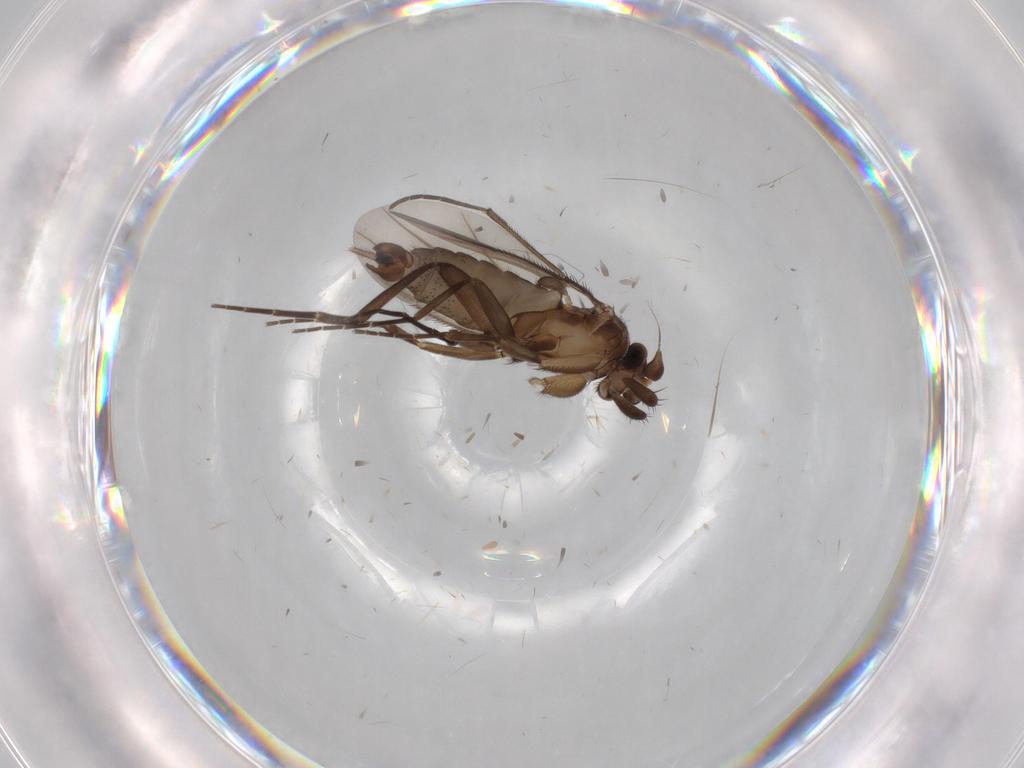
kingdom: Animalia
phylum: Arthropoda
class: Insecta
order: Diptera
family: Phoridae
